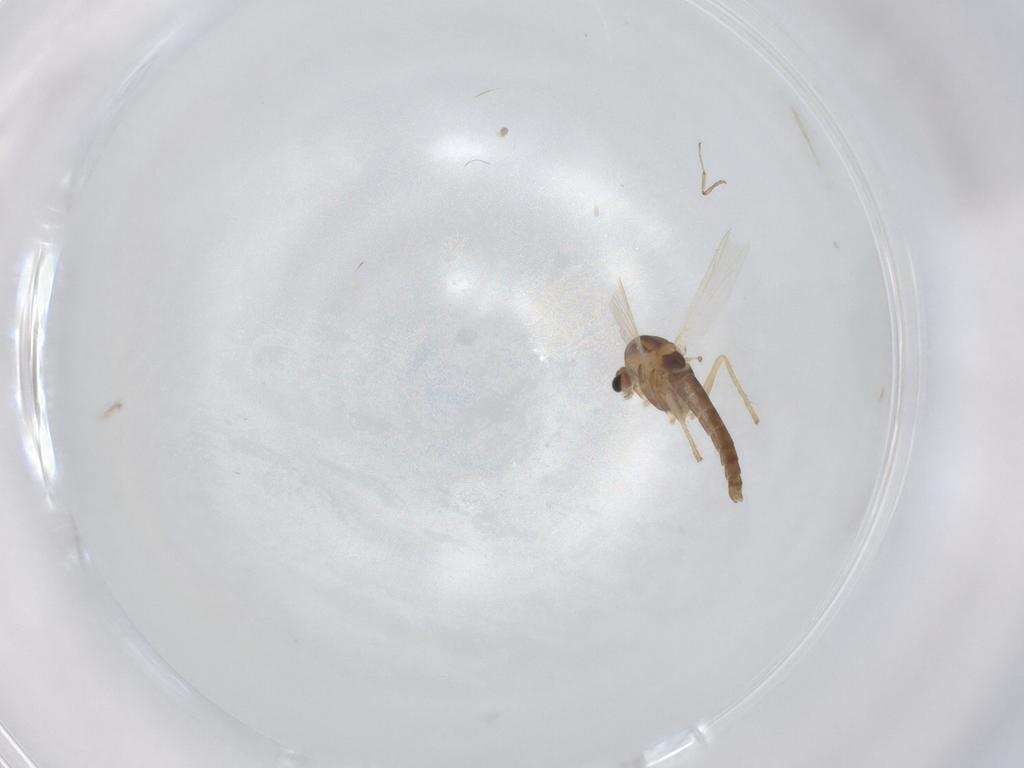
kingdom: Animalia
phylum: Arthropoda
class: Insecta
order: Diptera
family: Chironomidae
